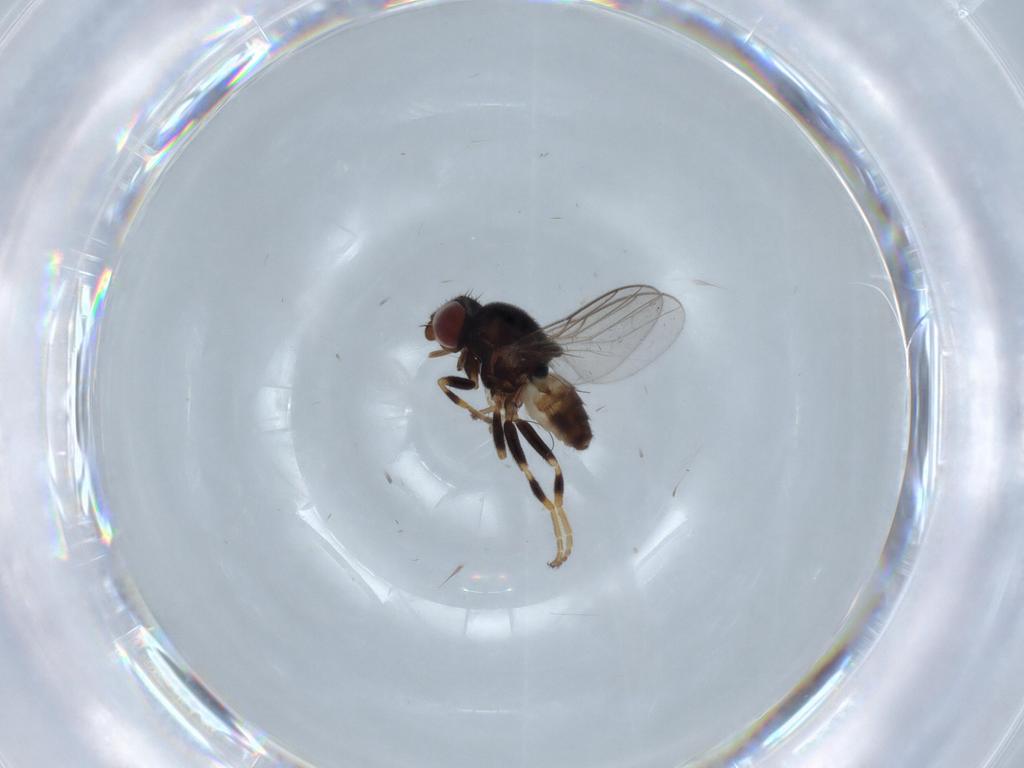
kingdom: Animalia
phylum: Arthropoda
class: Insecta
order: Diptera
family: Chloropidae
